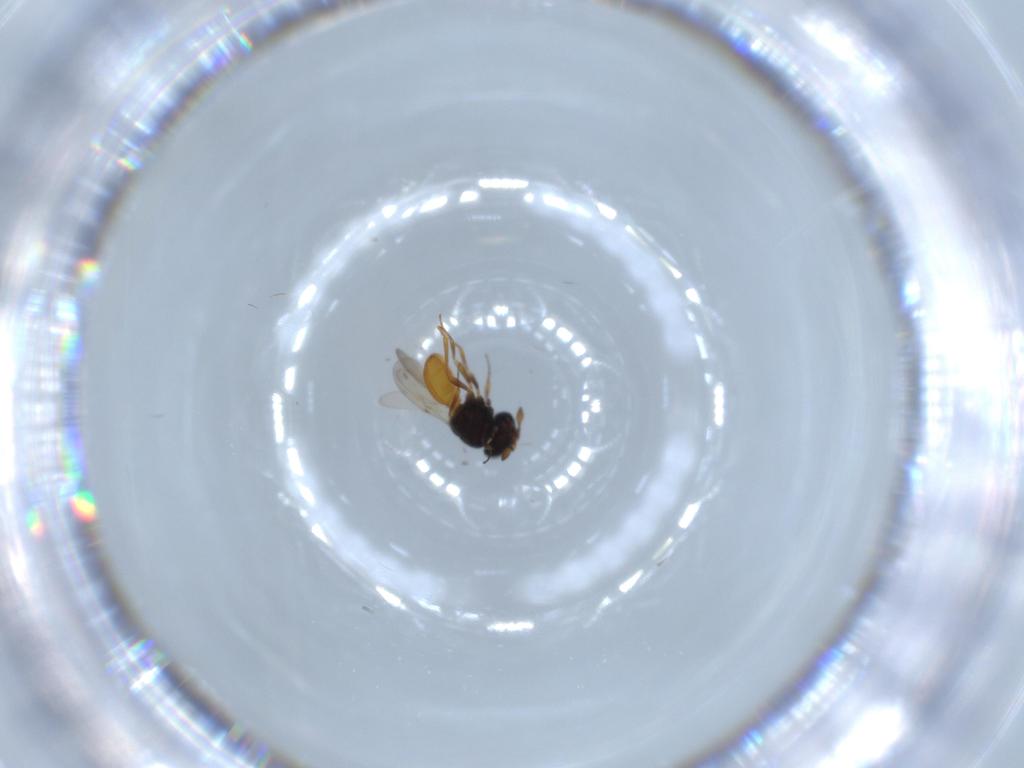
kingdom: Animalia
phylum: Arthropoda
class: Insecta
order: Hymenoptera
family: Scelionidae
